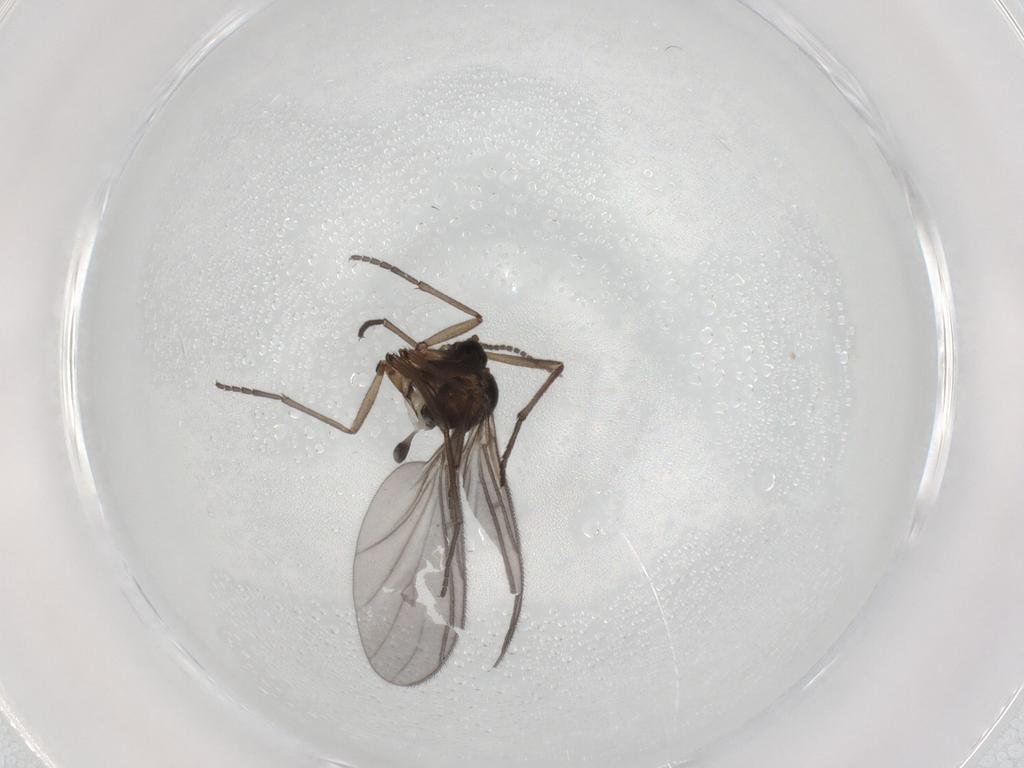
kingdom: Animalia
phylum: Arthropoda
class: Insecta
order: Diptera
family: Sciaridae
